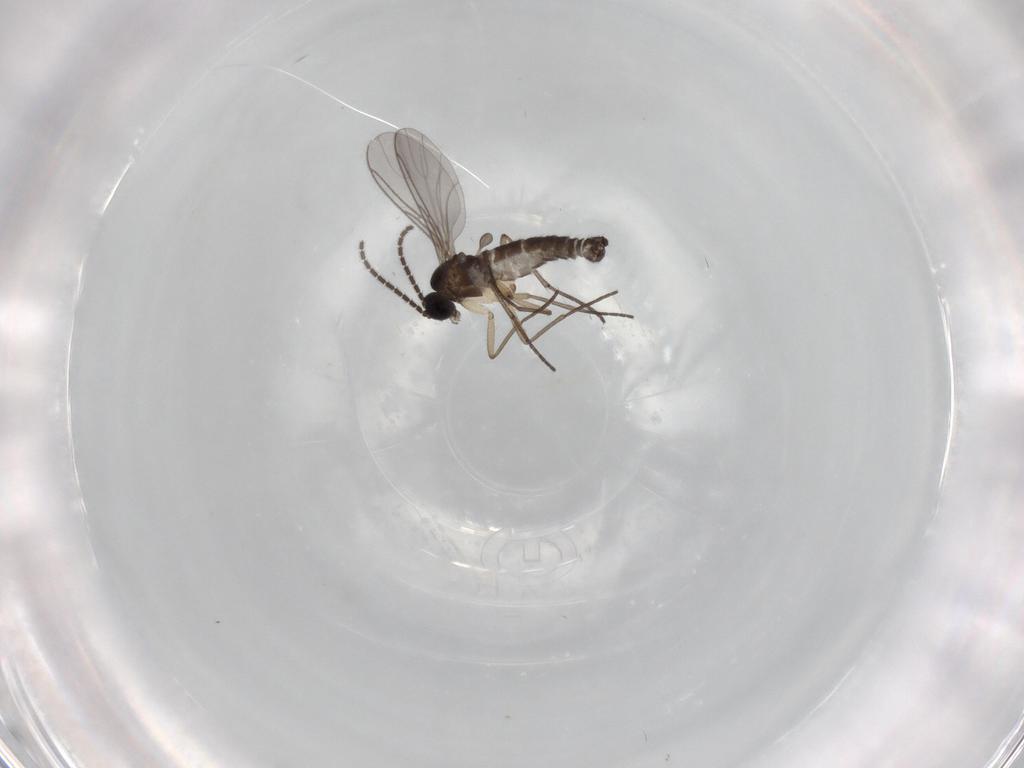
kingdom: Animalia
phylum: Arthropoda
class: Insecta
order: Diptera
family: Sciaridae
